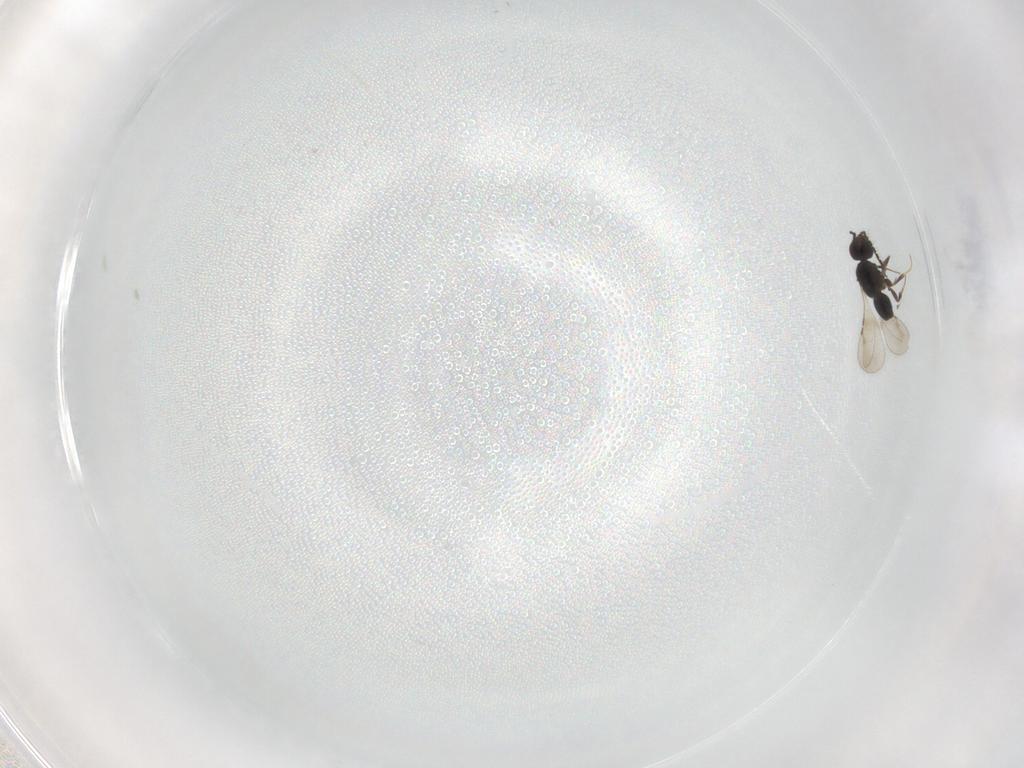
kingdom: Animalia
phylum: Arthropoda
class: Insecta
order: Hymenoptera
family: Ceraphronidae
